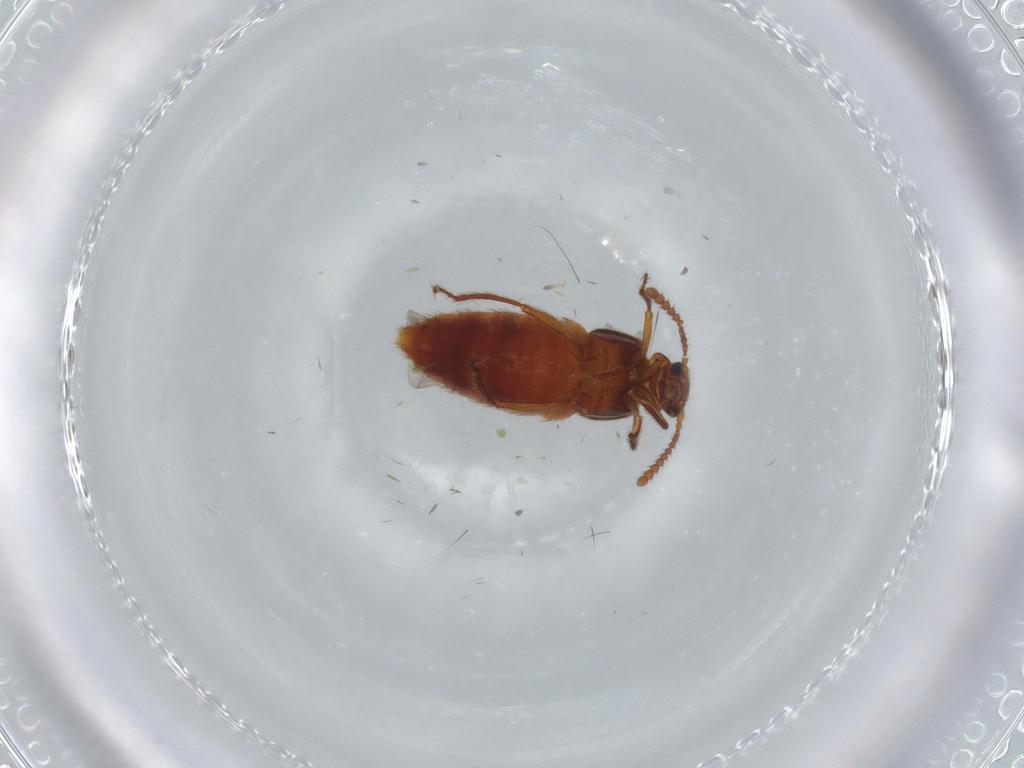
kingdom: Animalia
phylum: Arthropoda
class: Insecta
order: Coleoptera
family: Staphylinidae
